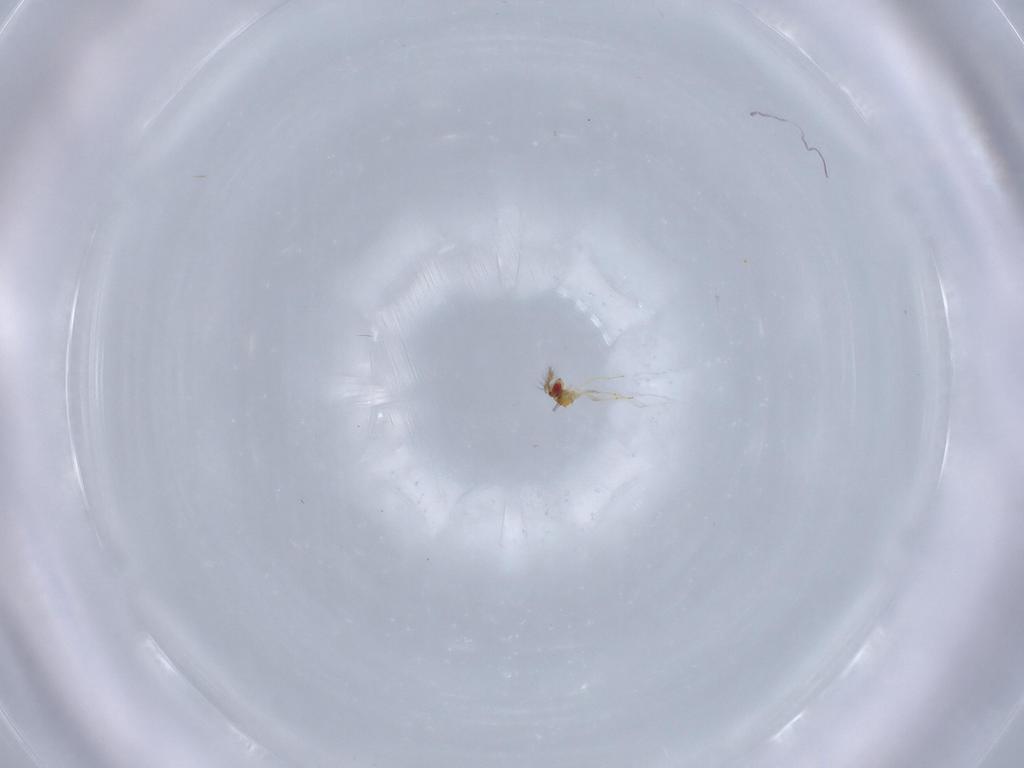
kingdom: Animalia
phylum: Arthropoda
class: Insecta
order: Hymenoptera
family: Trichogrammatidae
